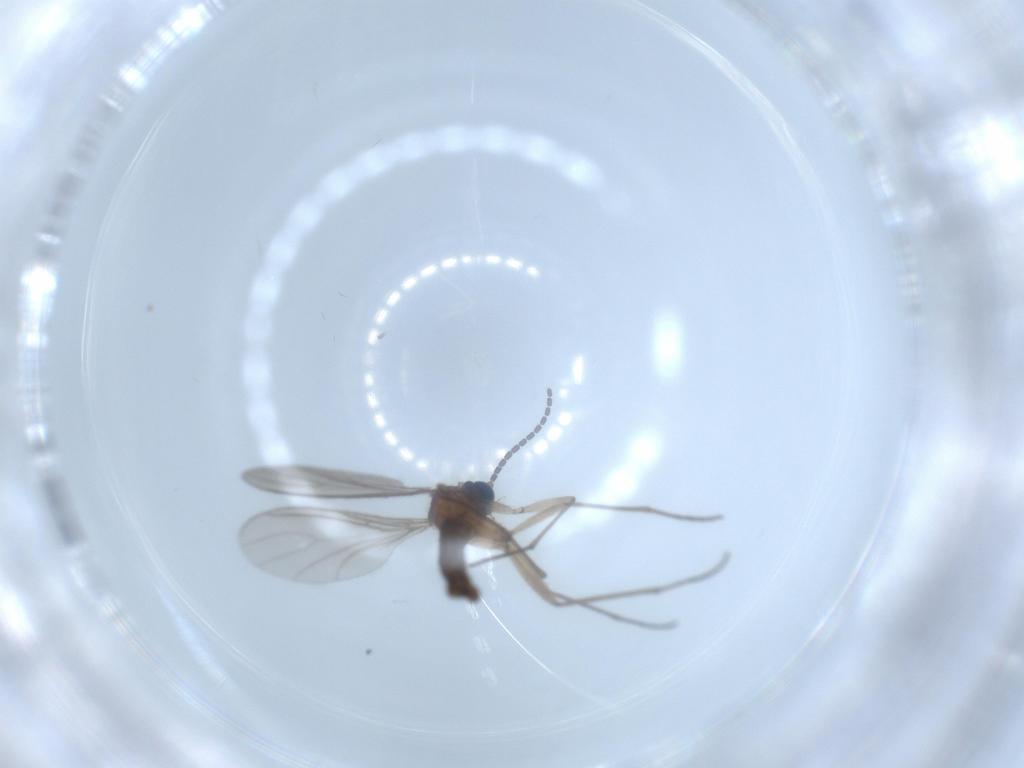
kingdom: Animalia
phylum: Arthropoda
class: Insecta
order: Diptera
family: Sciaridae
